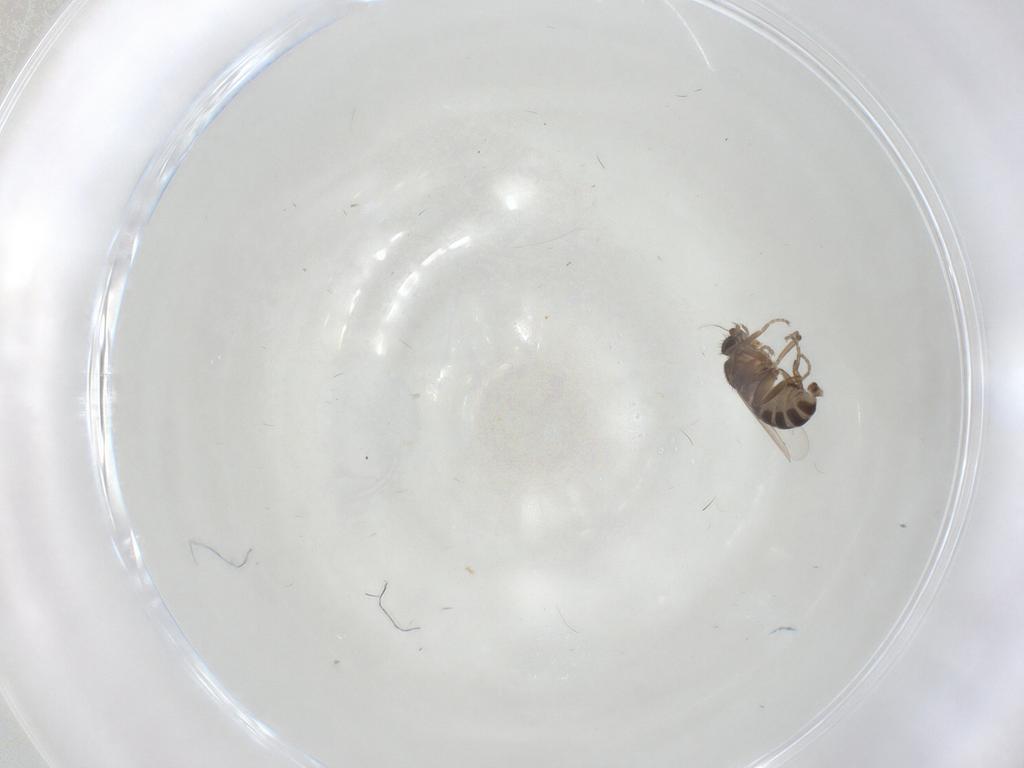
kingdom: Animalia
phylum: Arthropoda
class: Insecta
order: Diptera
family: Phoridae
